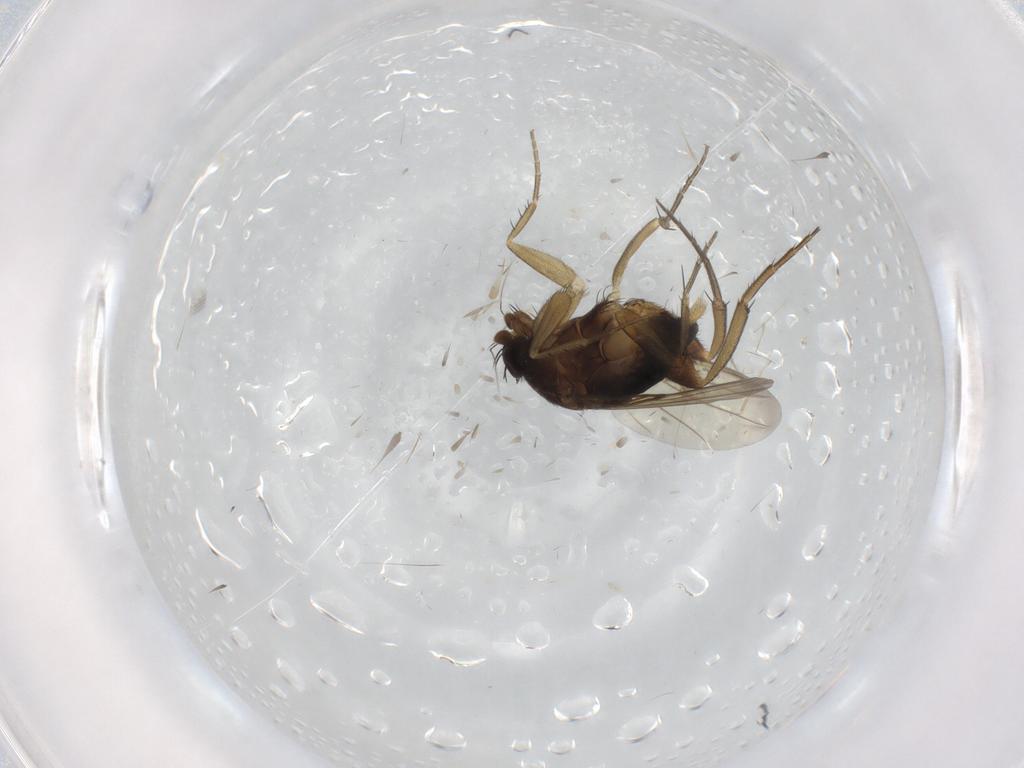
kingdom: Animalia
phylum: Arthropoda
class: Insecta
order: Diptera
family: Phoridae
